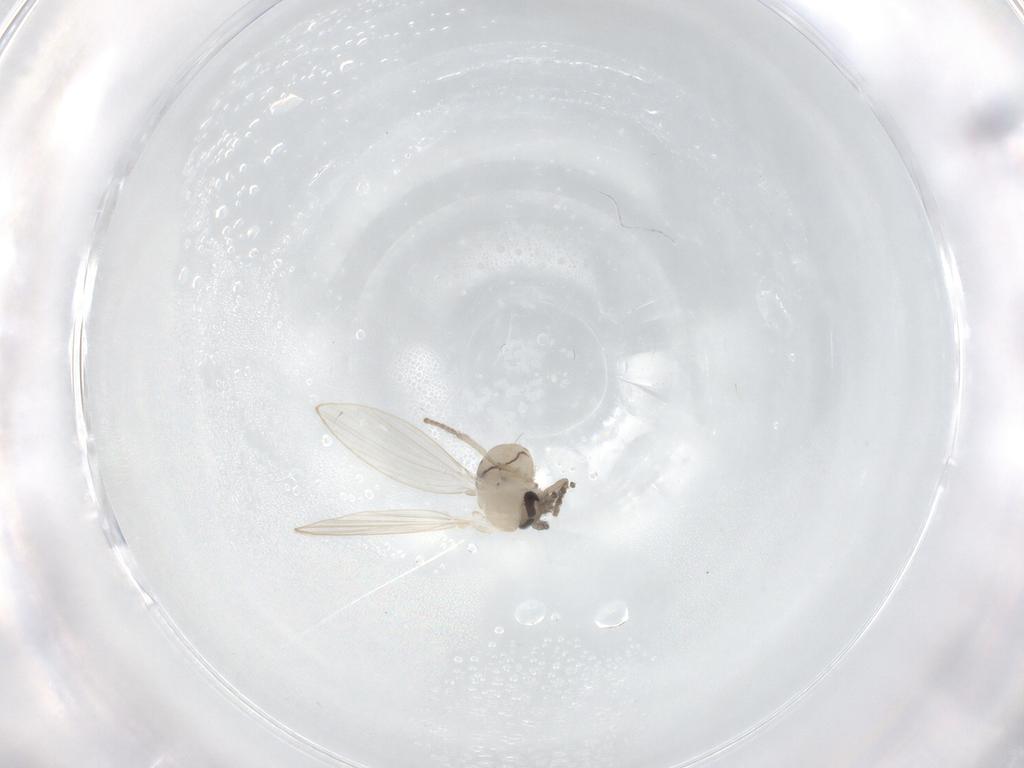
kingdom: Animalia
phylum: Arthropoda
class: Insecta
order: Diptera
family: Psychodidae
